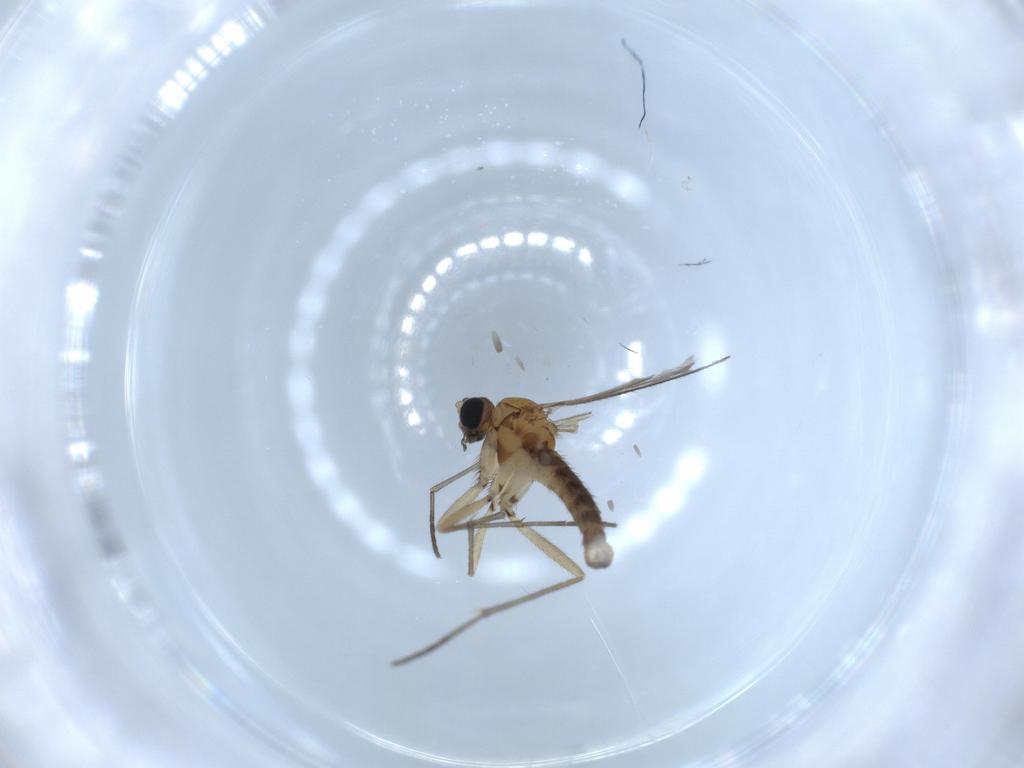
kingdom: Animalia
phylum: Arthropoda
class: Insecta
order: Diptera
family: Sciaridae
